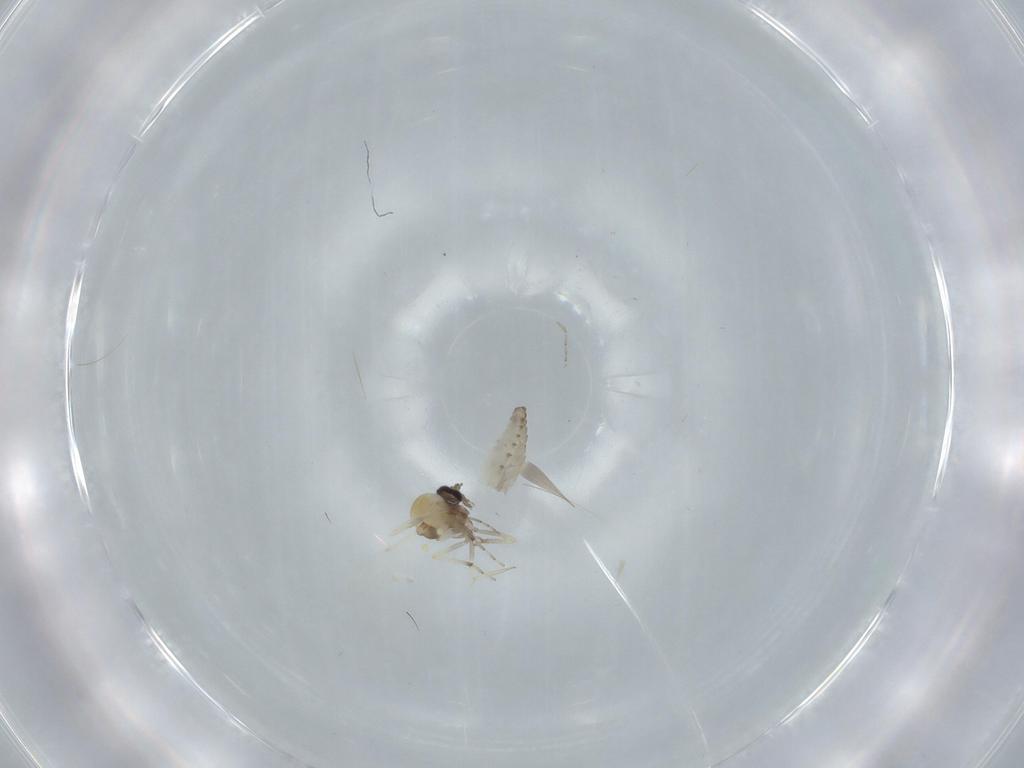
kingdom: Animalia
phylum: Arthropoda
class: Insecta
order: Diptera
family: Ceratopogonidae
